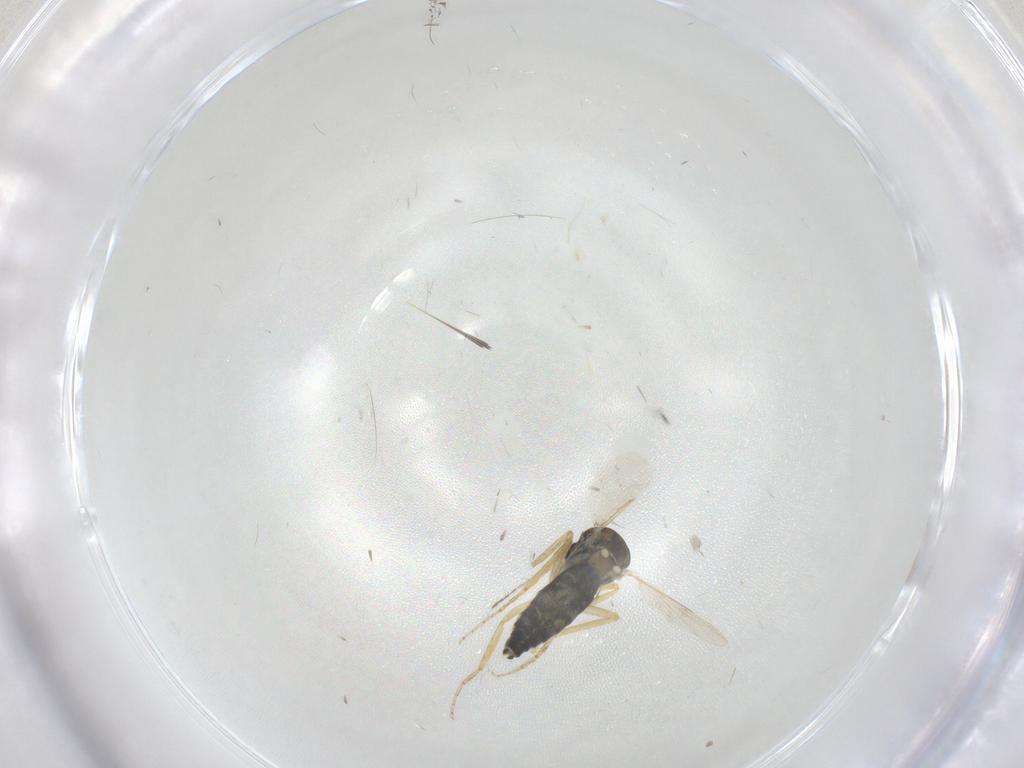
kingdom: Animalia
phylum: Arthropoda
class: Insecta
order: Diptera
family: Ceratopogonidae
